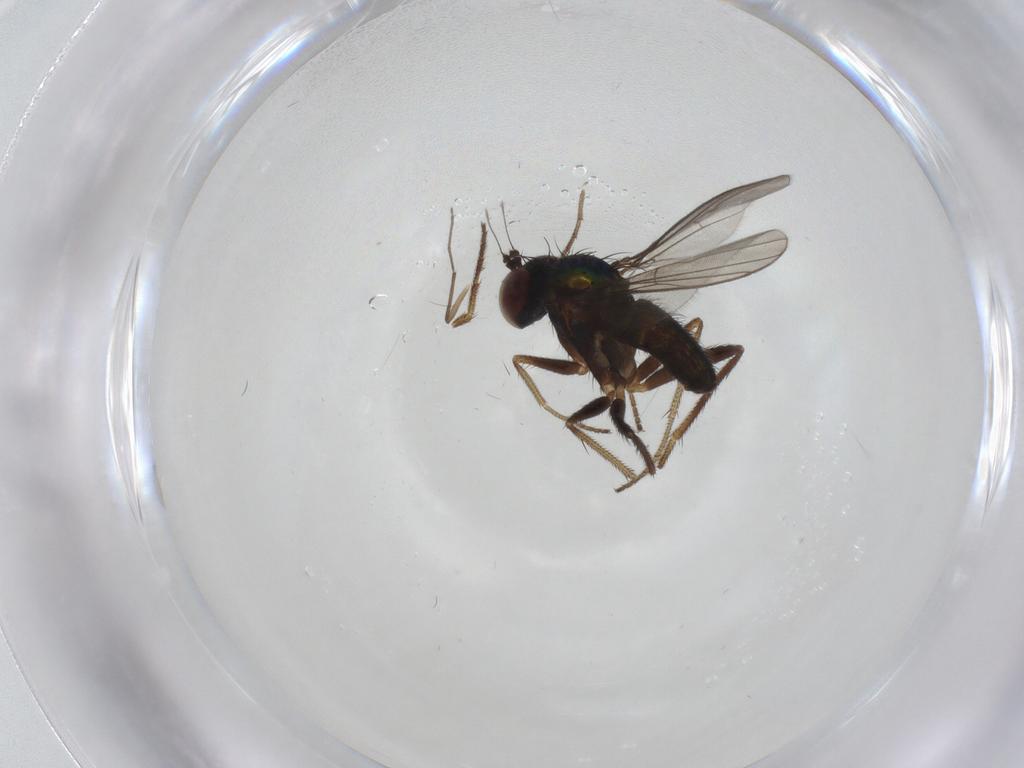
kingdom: Animalia
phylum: Arthropoda
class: Insecta
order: Diptera
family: Dolichopodidae
